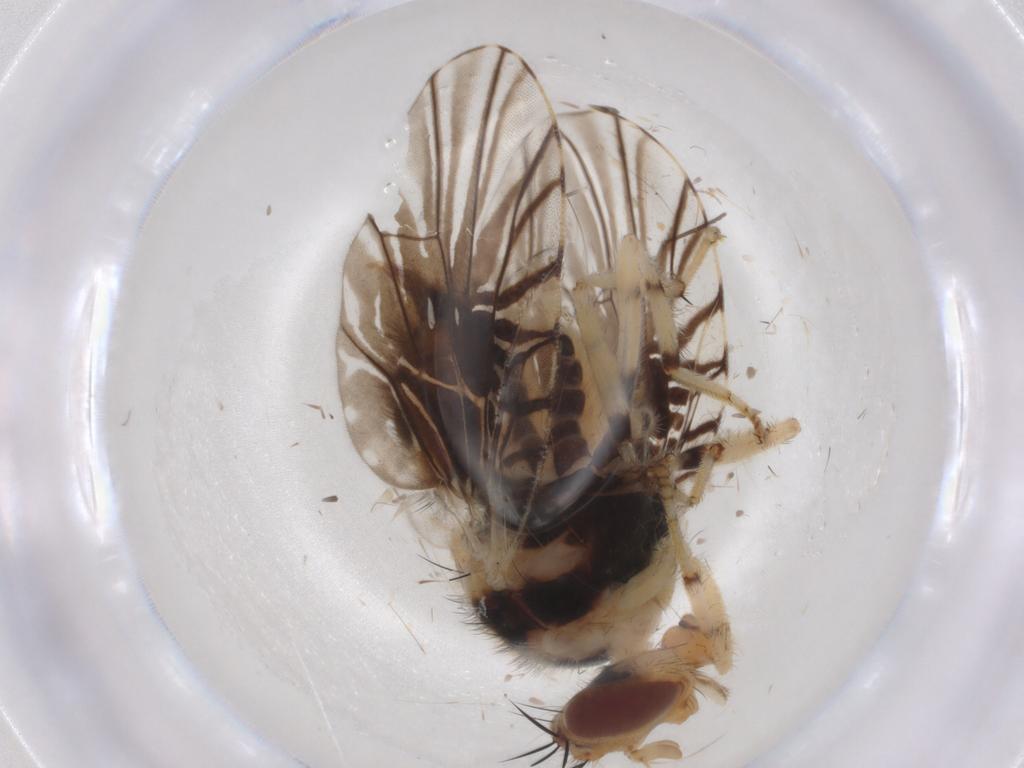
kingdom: Animalia
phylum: Arthropoda
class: Insecta
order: Diptera
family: Platystomatidae
